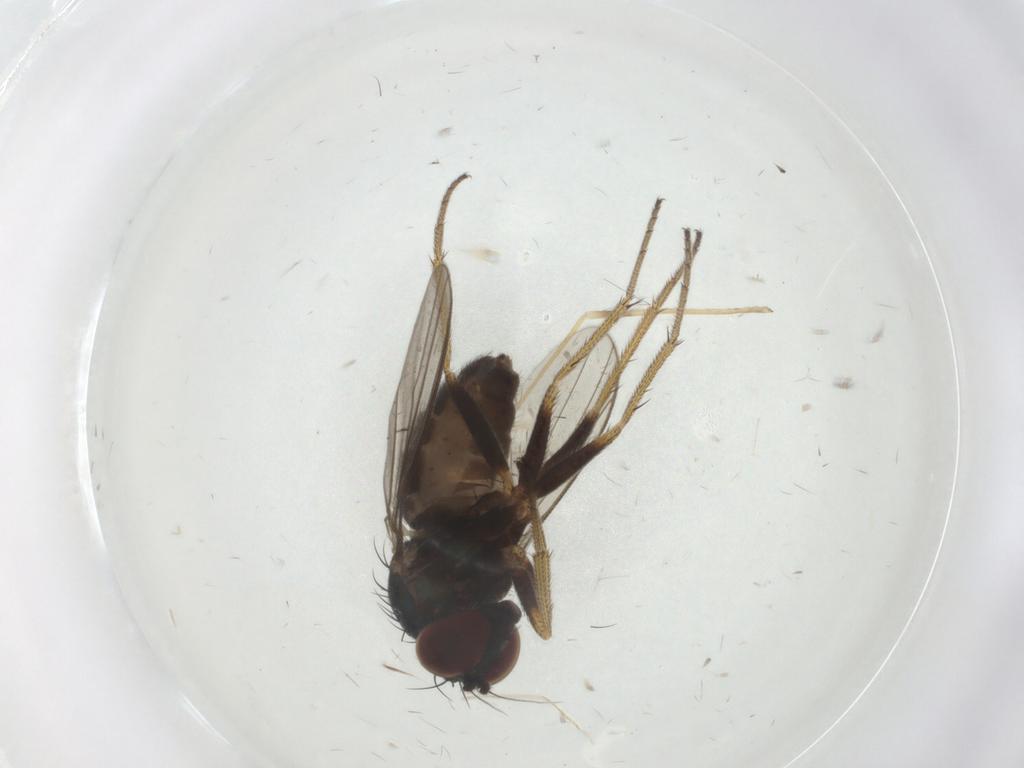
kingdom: Animalia
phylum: Arthropoda
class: Insecta
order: Diptera
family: Limoniidae
